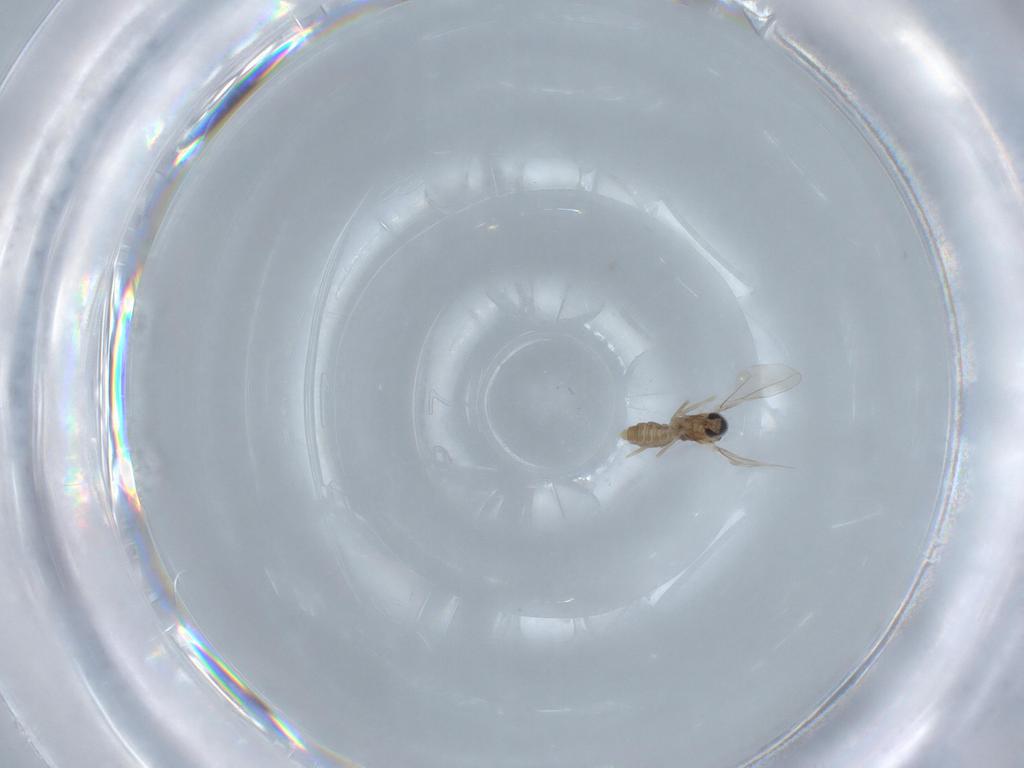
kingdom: Animalia
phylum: Arthropoda
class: Insecta
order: Diptera
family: Cecidomyiidae
